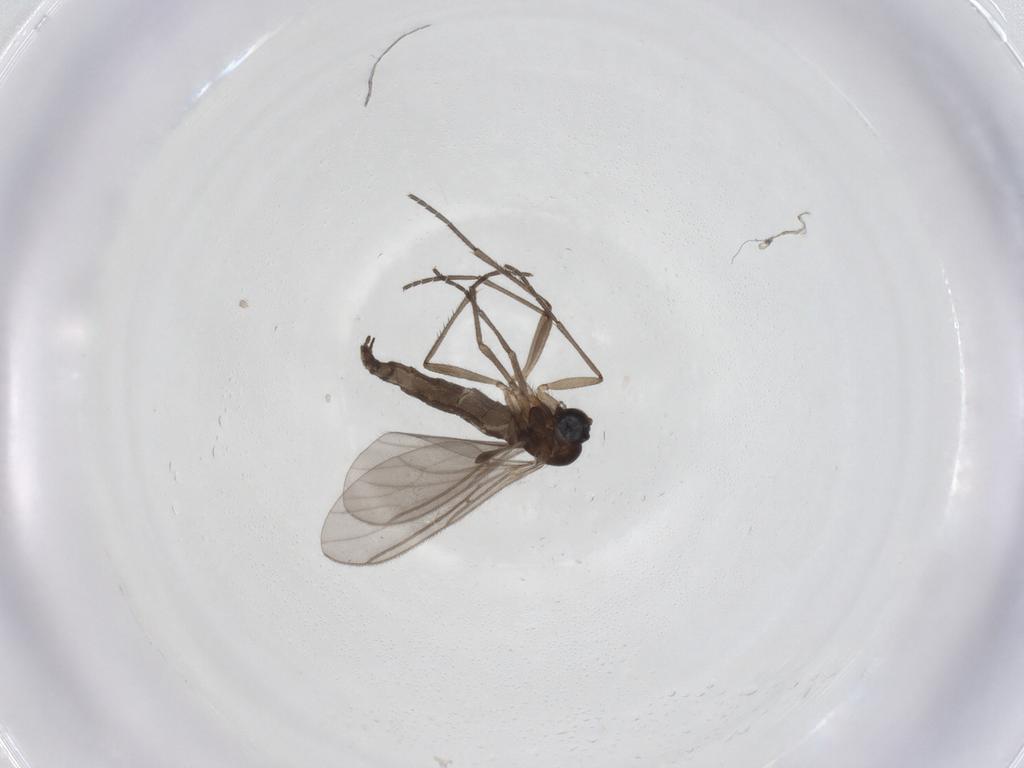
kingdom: Animalia
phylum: Arthropoda
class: Insecta
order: Diptera
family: Sciaridae
